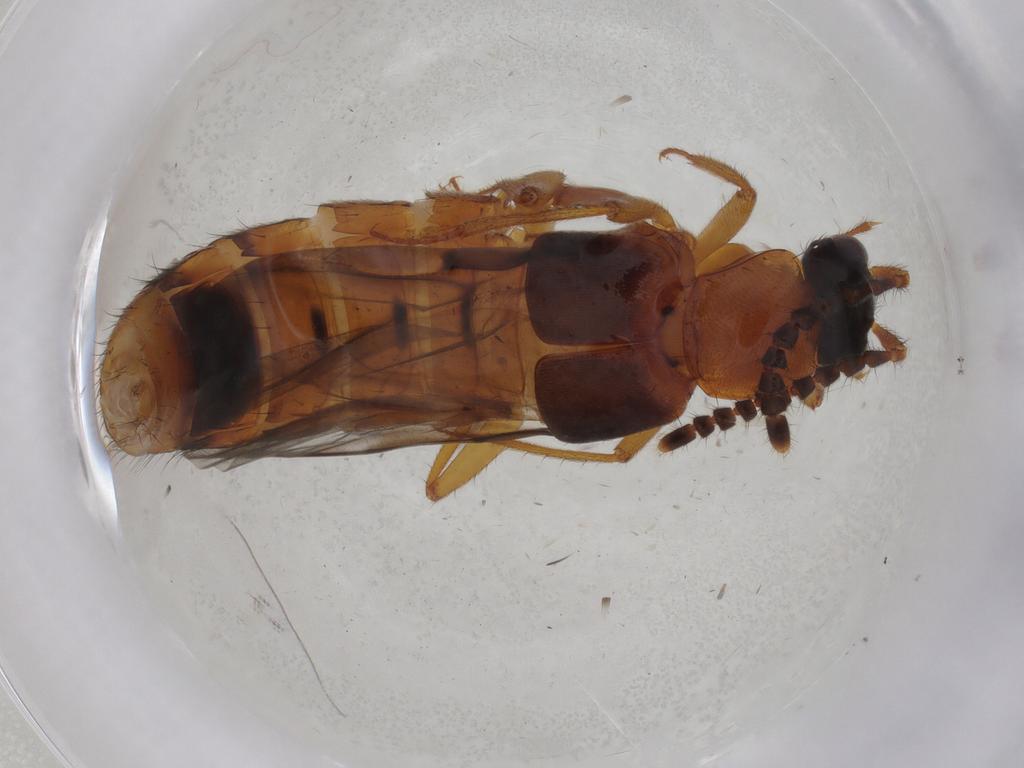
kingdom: Animalia
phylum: Arthropoda
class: Insecta
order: Coleoptera
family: Staphylinidae
